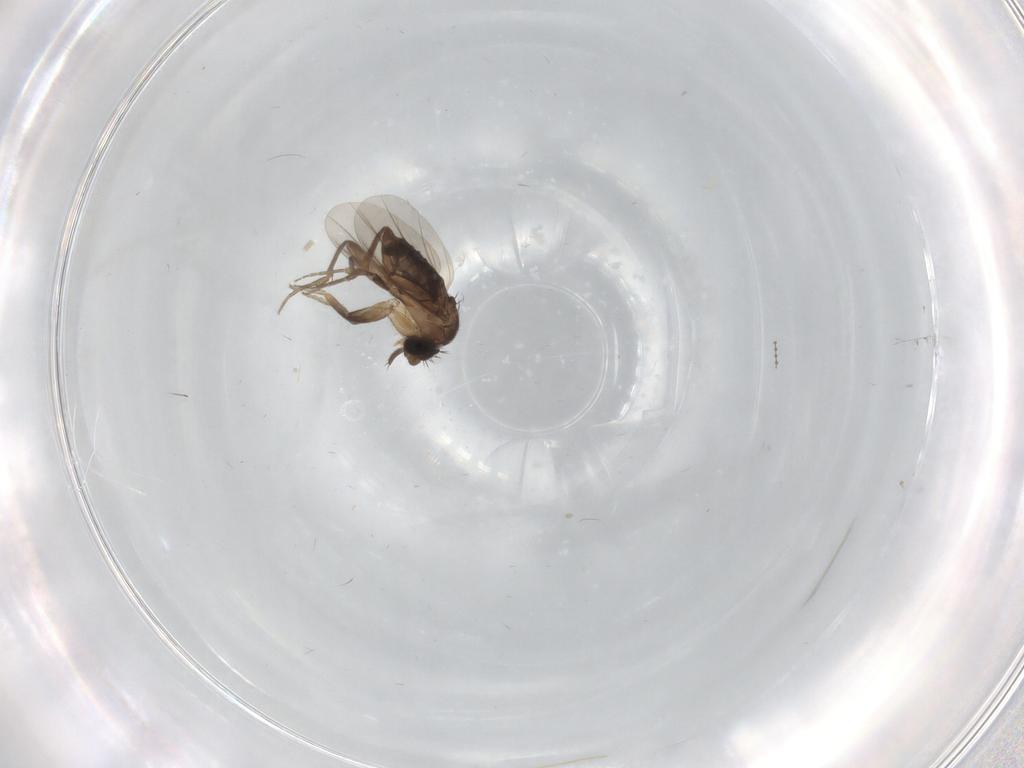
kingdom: Animalia
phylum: Arthropoda
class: Insecta
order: Diptera
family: Cecidomyiidae
